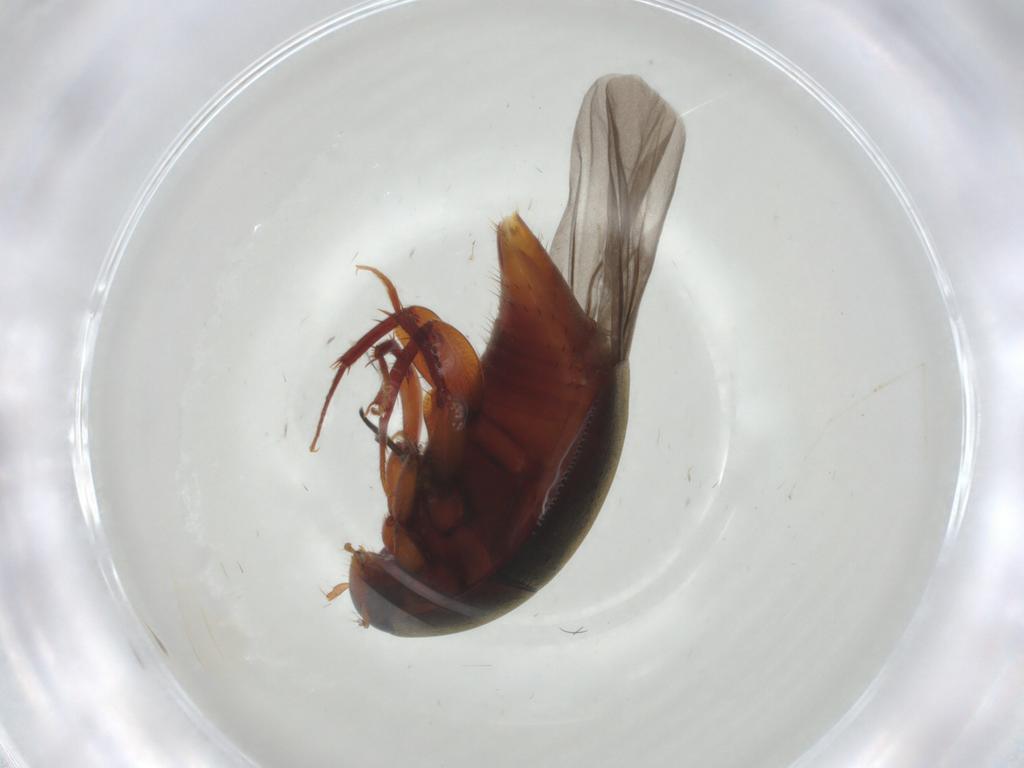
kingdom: Animalia
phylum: Arthropoda
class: Insecta
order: Coleoptera
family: Staphylinidae
